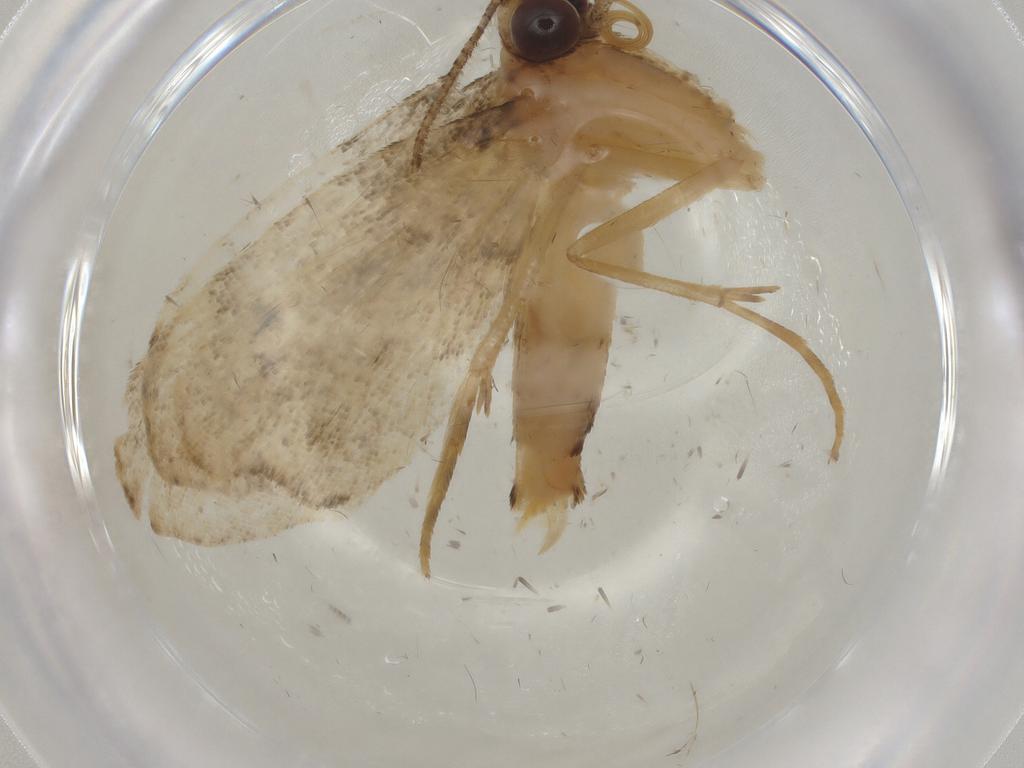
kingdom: Animalia
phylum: Arthropoda
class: Insecta
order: Lepidoptera
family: Erebidae
